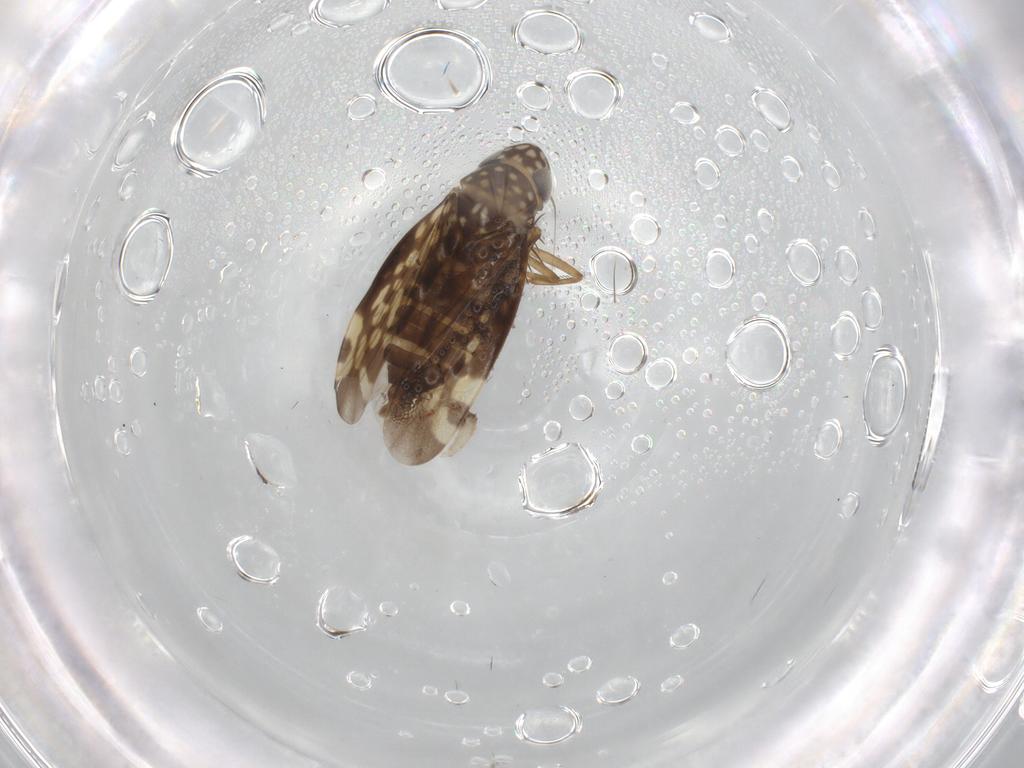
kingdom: Animalia
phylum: Arthropoda
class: Insecta
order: Hemiptera
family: Cicadellidae
